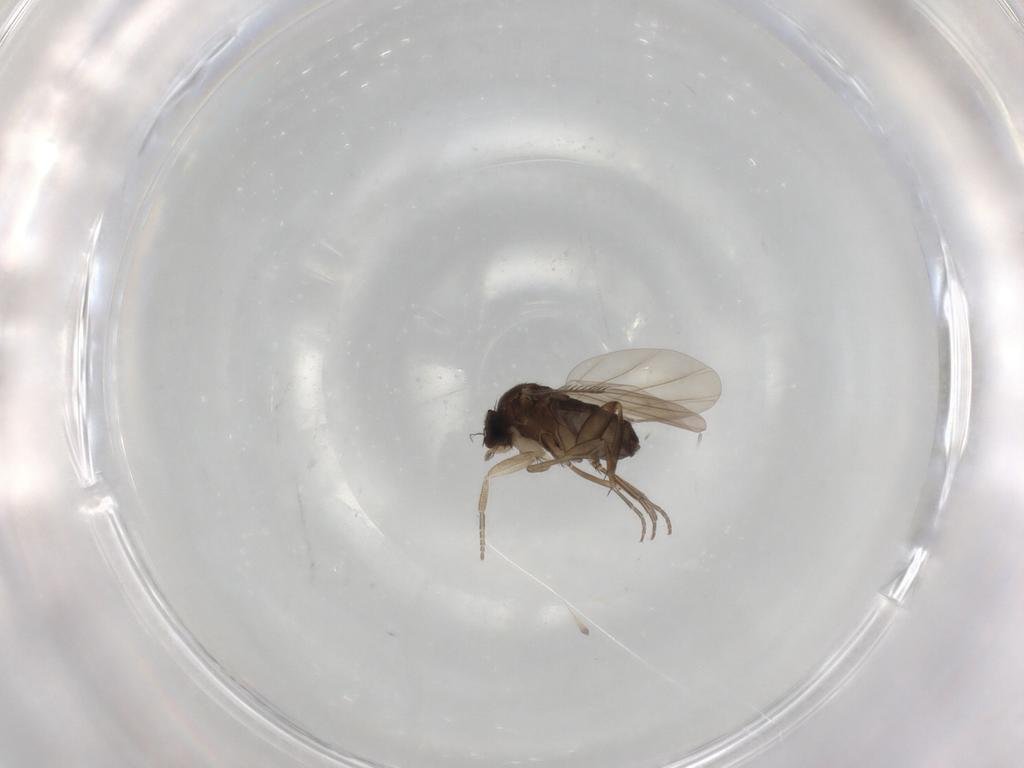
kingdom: Animalia
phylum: Arthropoda
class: Insecta
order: Diptera
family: Phoridae
